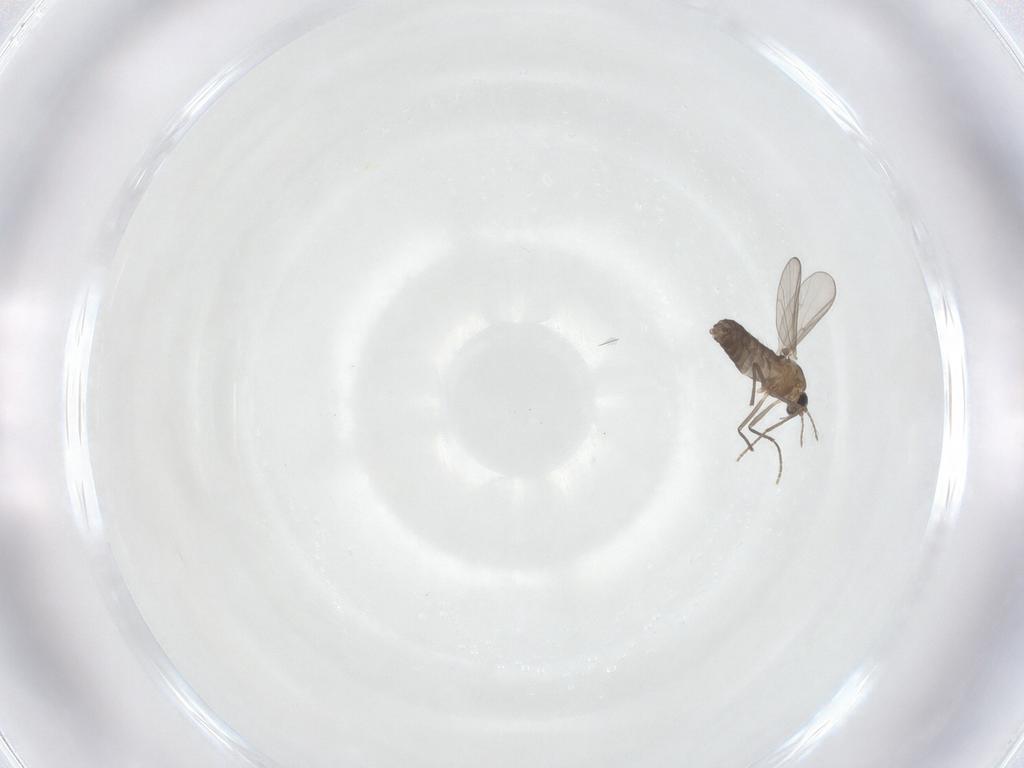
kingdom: Animalia
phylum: Arthropoda
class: Insecta
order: Diptera
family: Chironomidae
